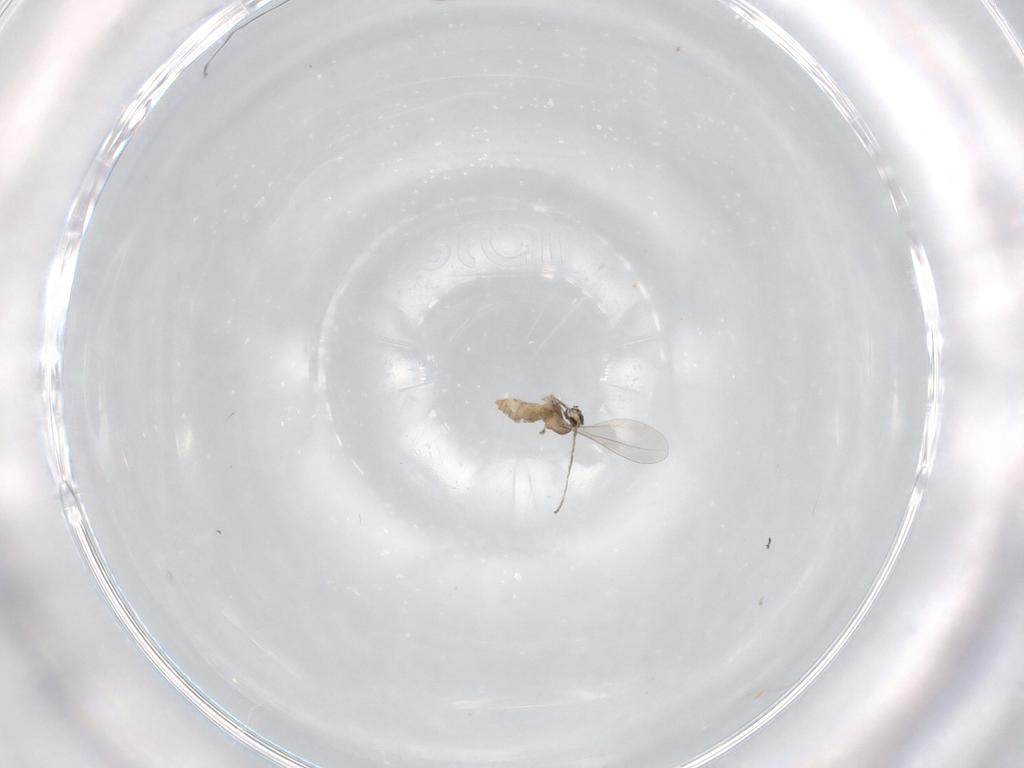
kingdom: Animalia
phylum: Arthropoda
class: Insecta
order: Diptera
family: Cecidomyiidae
